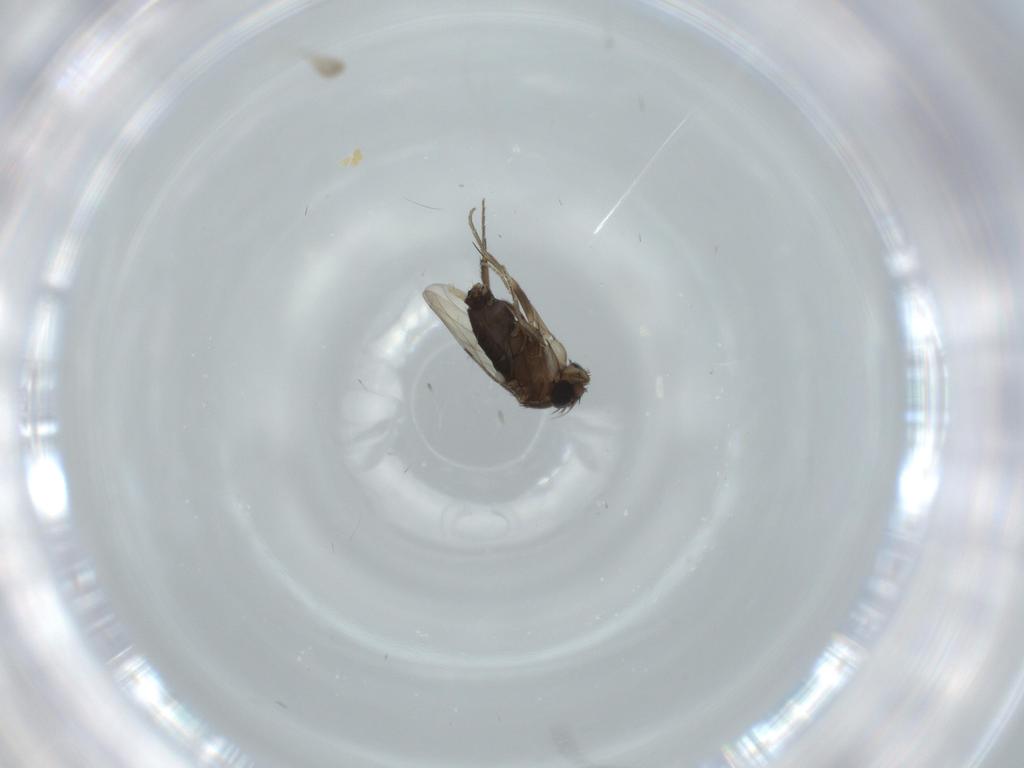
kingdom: Animalia
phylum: Arthropoda
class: Insecta
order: Diptera
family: Phoridae
